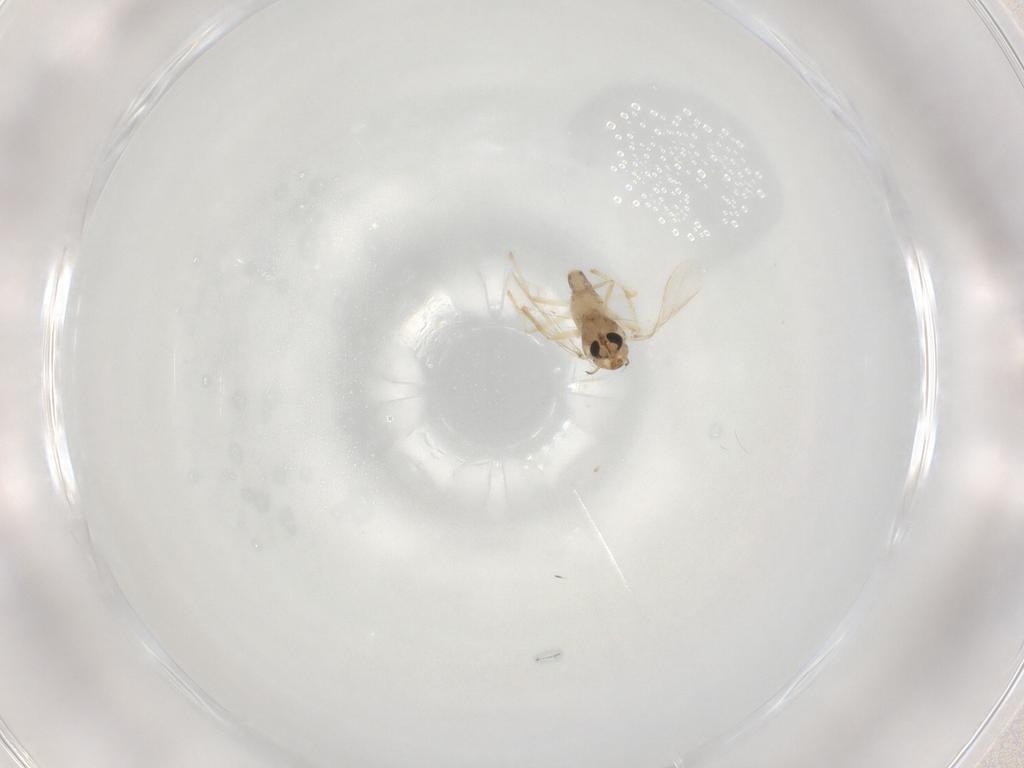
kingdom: Animalia
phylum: Arthropoda
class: Insecta
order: Diptera
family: Chironomidae
